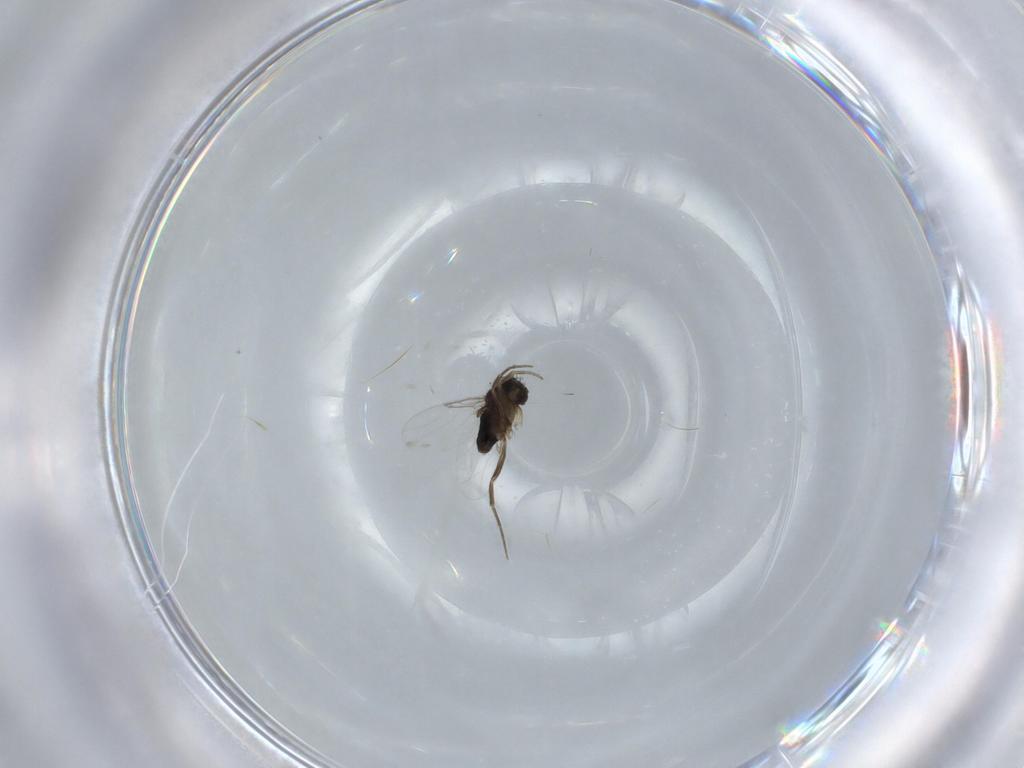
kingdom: Animalia
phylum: Arthropoda
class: Insecta
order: Diptera
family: Phoridae
